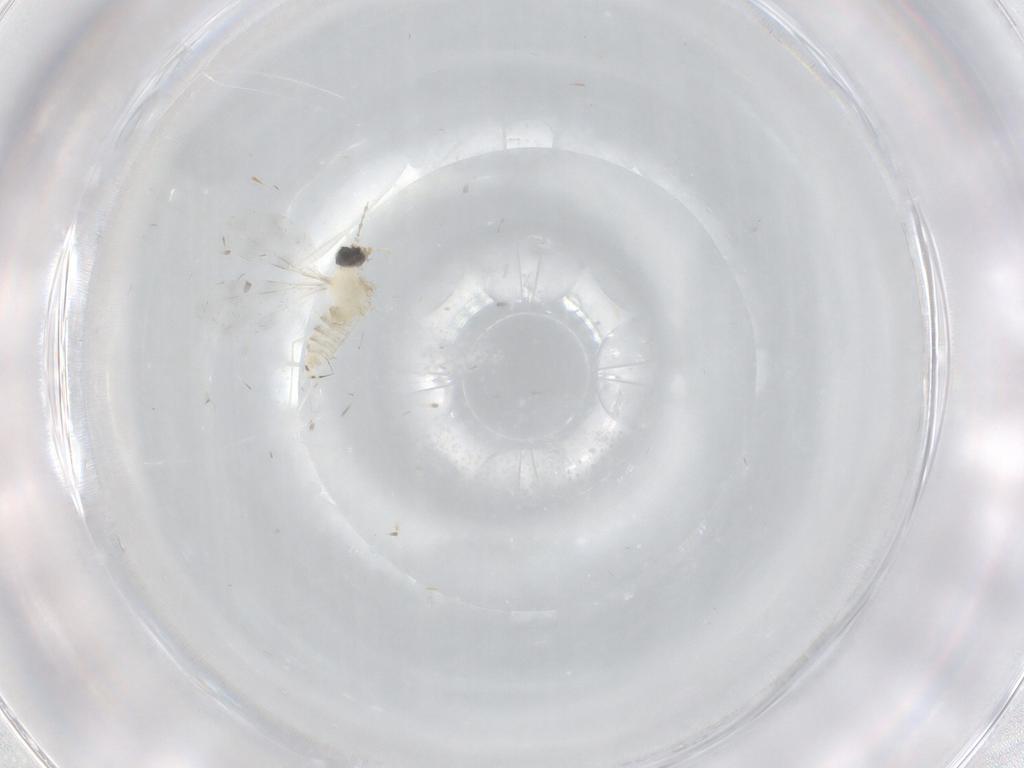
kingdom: Animalia
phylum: Arthropoda
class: Insecta
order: Diptera
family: Cecidomyiidae
